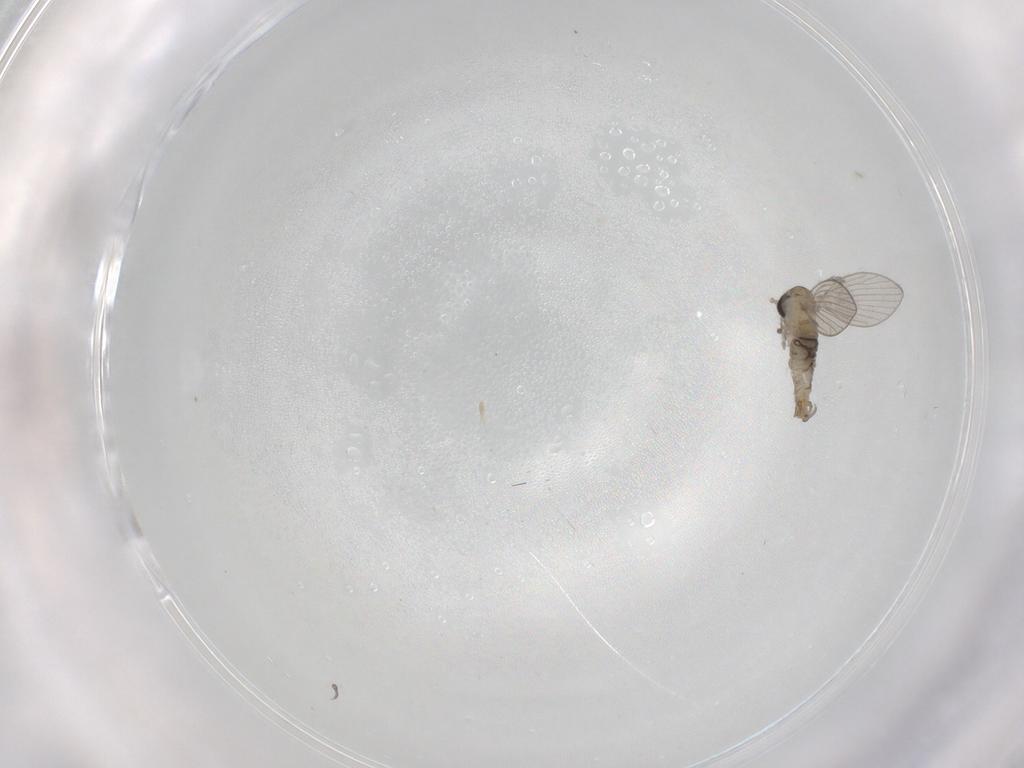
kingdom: Animalia
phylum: Arthropoda
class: Insecta
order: Diptera
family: Psychodidae
